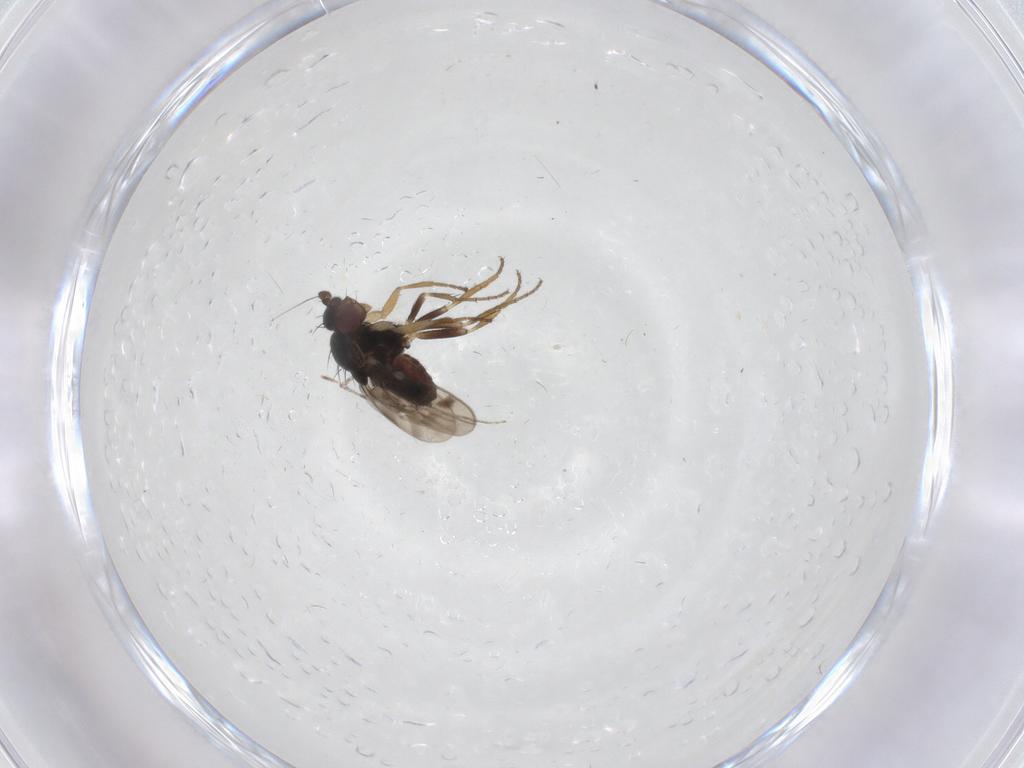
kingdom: Animalia
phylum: Arthropoda
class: Insecta
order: Diptera
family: Sphaeroceridae
